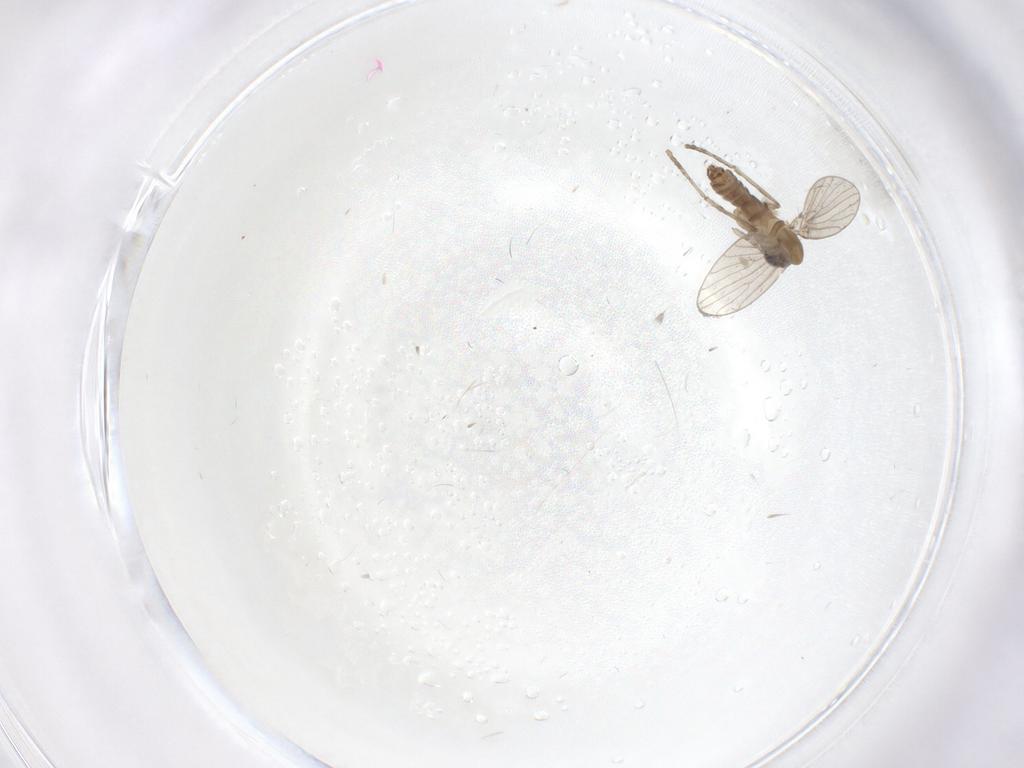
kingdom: Animalia
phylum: Arthropoda
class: Insecta
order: Diptera
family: Psychodidae
